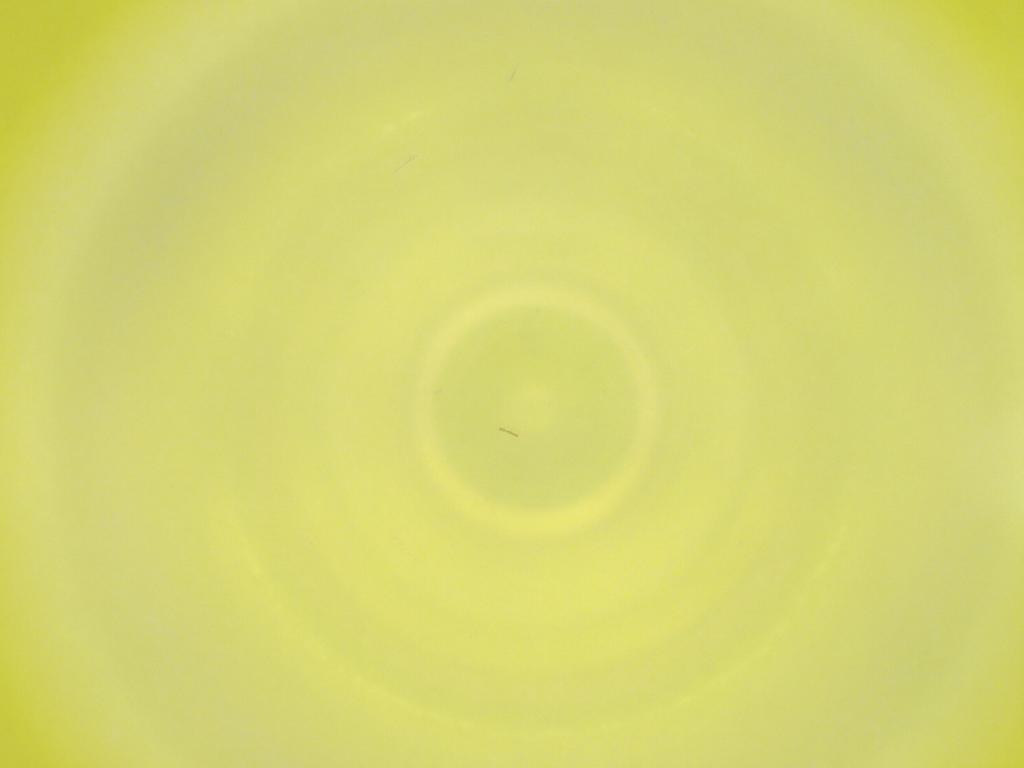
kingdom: Animalia
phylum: Arthropoda
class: Insecta
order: Diptera
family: Cecidomyiidae
